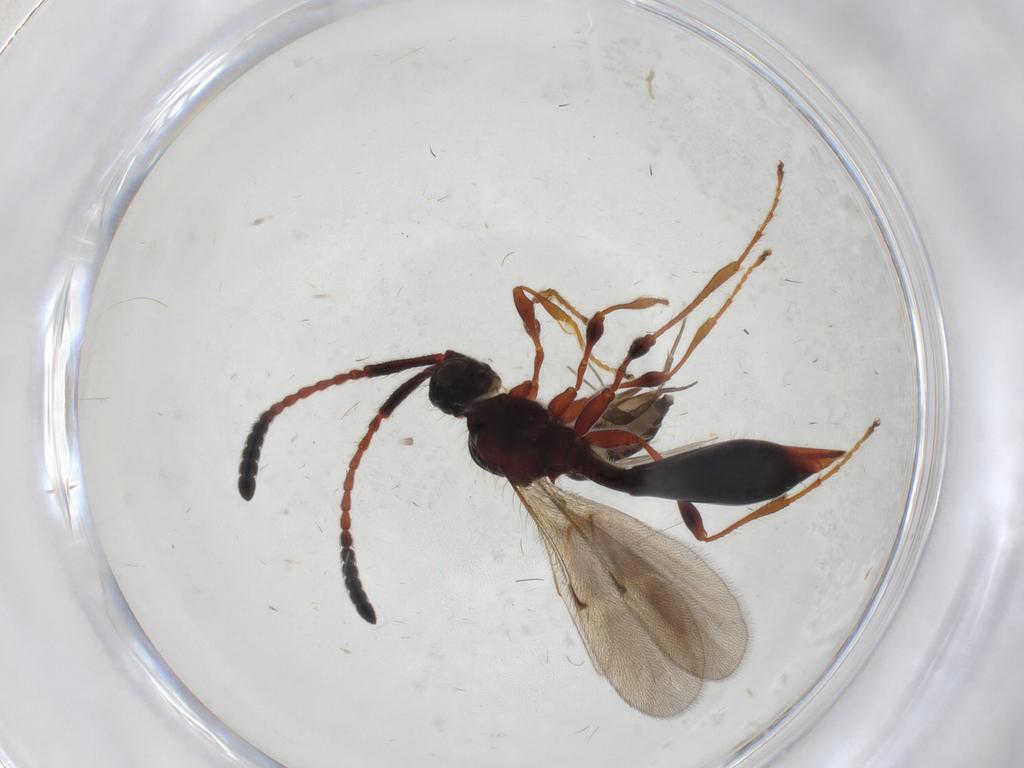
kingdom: Animalia
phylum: Arthropoda
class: Insecta
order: Diptera
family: Phoridae
